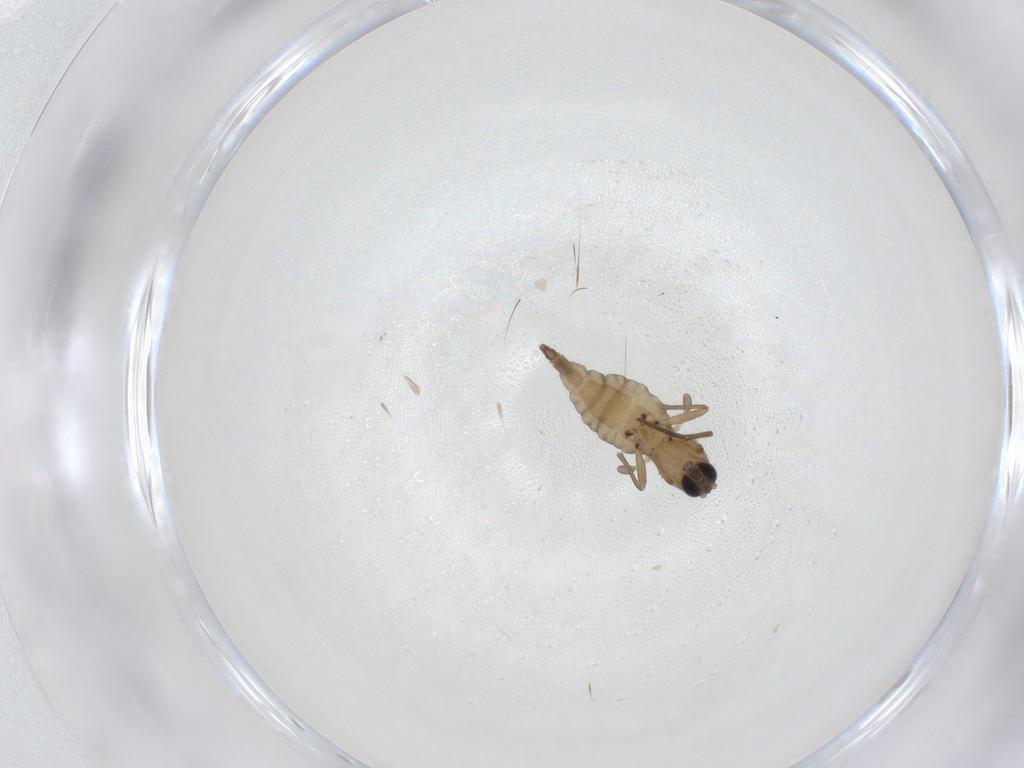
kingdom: Animalia
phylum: Arthropoda
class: Insecta
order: Diptera
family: Sciaridae
